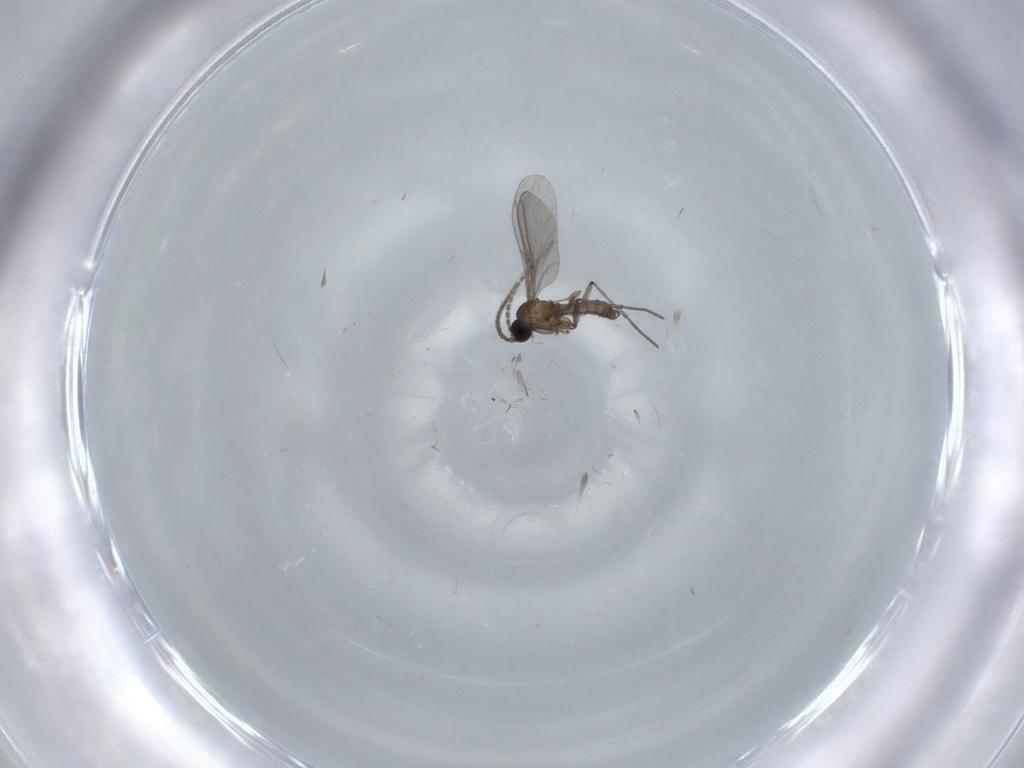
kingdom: Animalia
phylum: Arthropoda
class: Insecta
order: Diptera
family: Sciaridae
